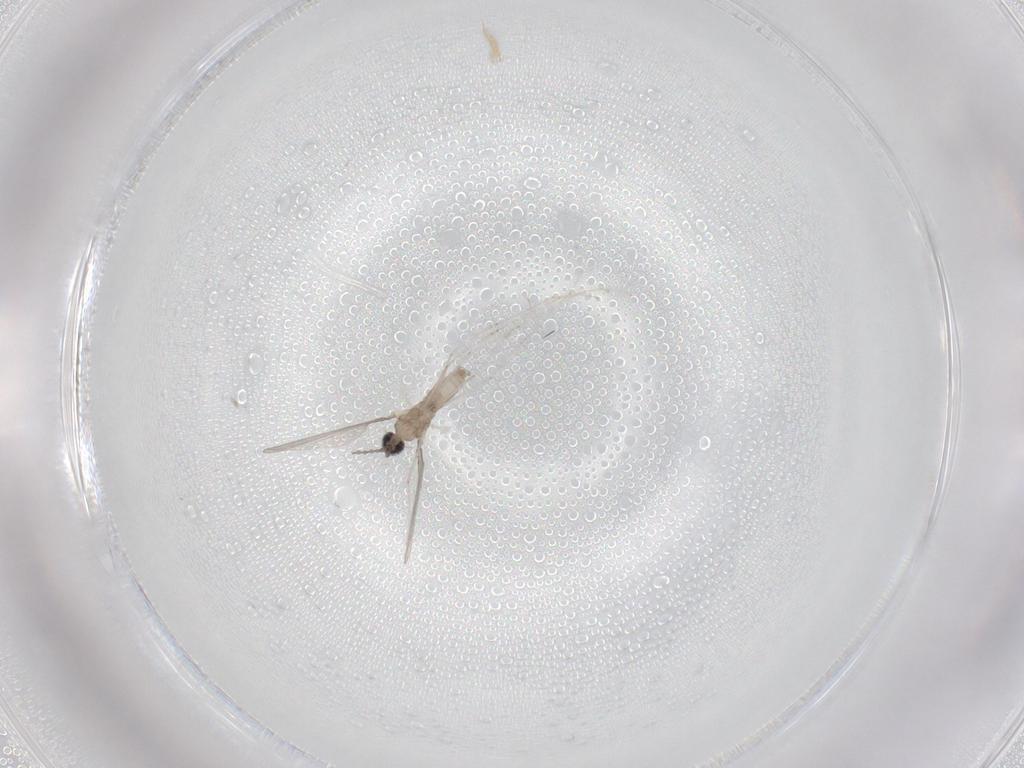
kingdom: Animalia
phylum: Arthropoda
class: Insecta
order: Diptera
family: Cecidomyiidae
